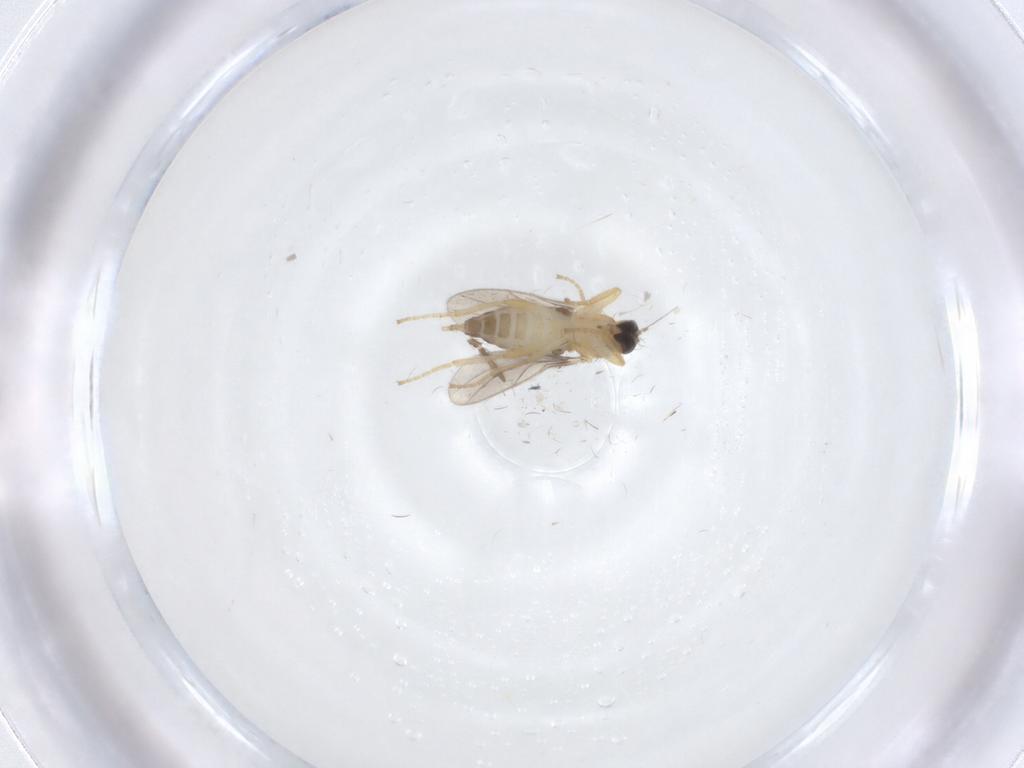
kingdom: Animalia
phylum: Arthropoda
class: Insecta
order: Diptera
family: Hybotidae
